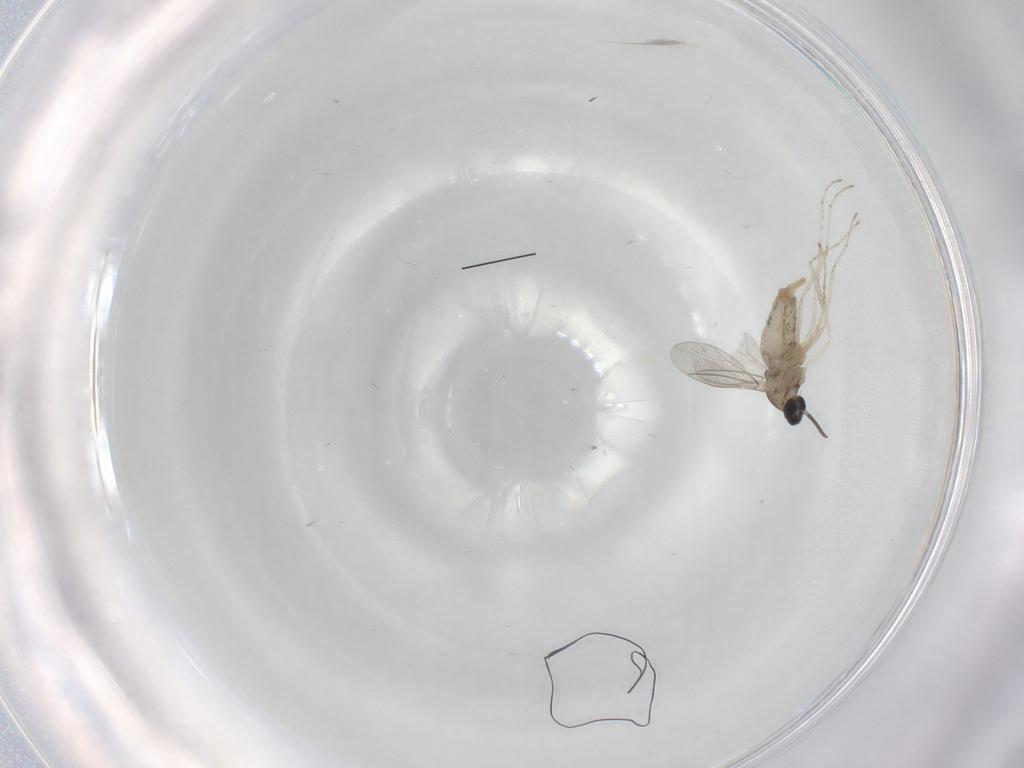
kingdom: Animalia
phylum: Arthropoda
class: Insecta
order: Diptera
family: Cecidomyiidae
